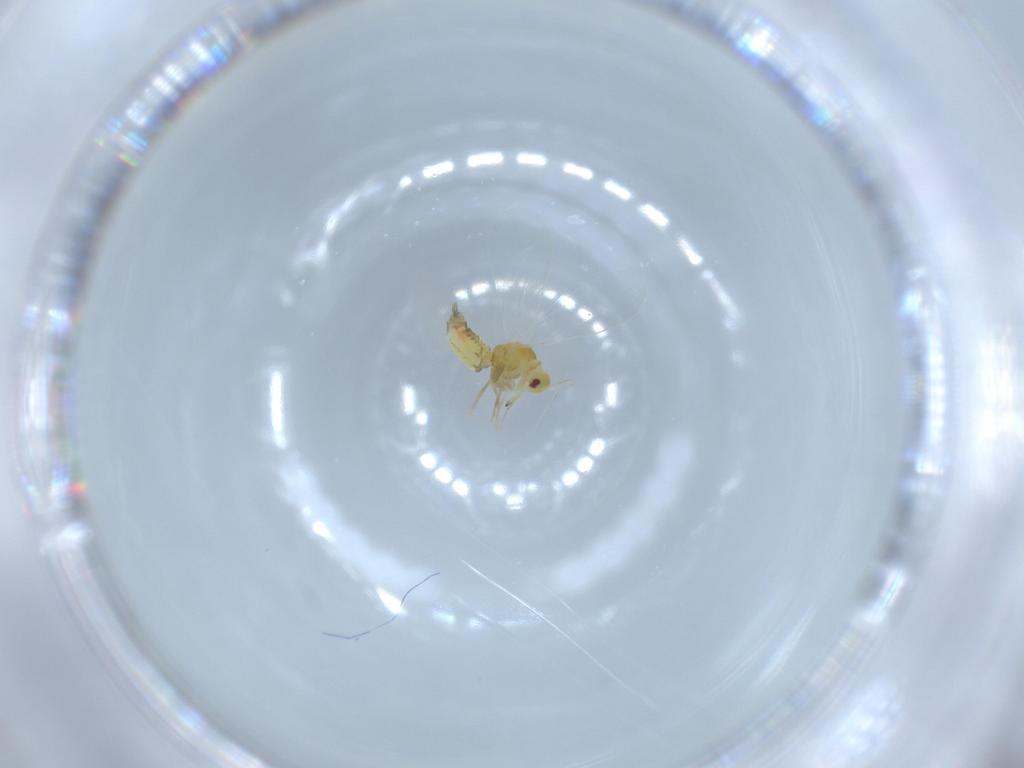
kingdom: Animalia
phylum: Arthropoda
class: Insecta
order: Hemiptera
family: Aleyrodidae
